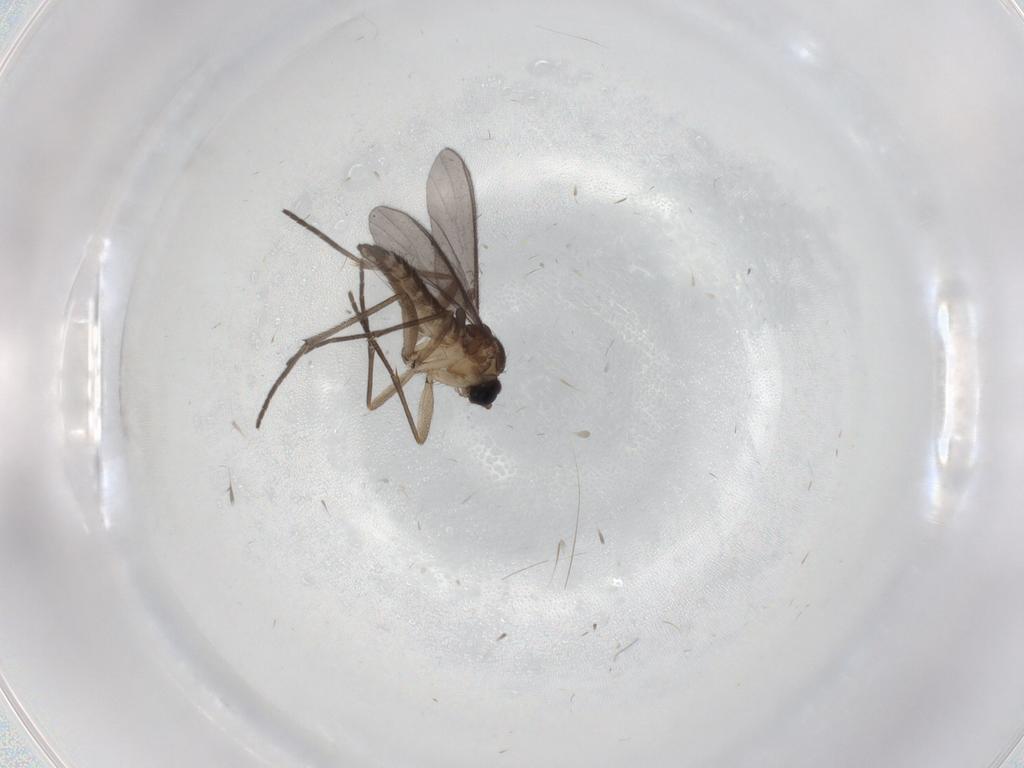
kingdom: Animalia
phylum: Arthropoda
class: Insecta
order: Diptera
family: Sciaridae
